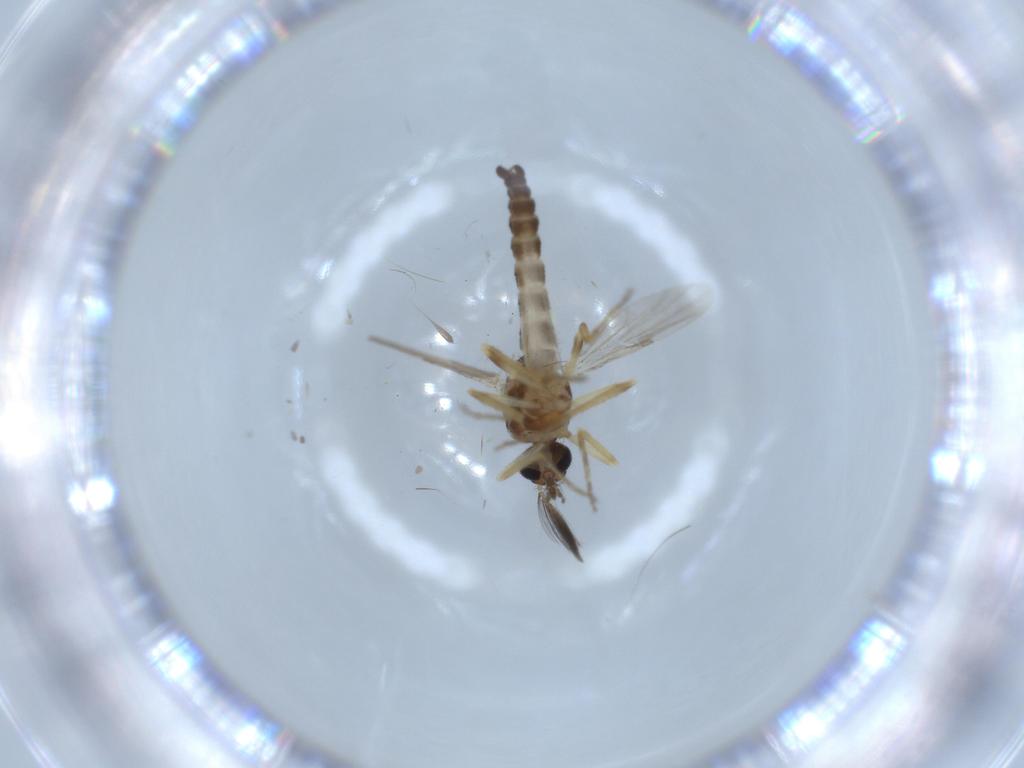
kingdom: Animalia
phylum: Arthropoda
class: Insecta
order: Diptera
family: Ceratopogonidae
